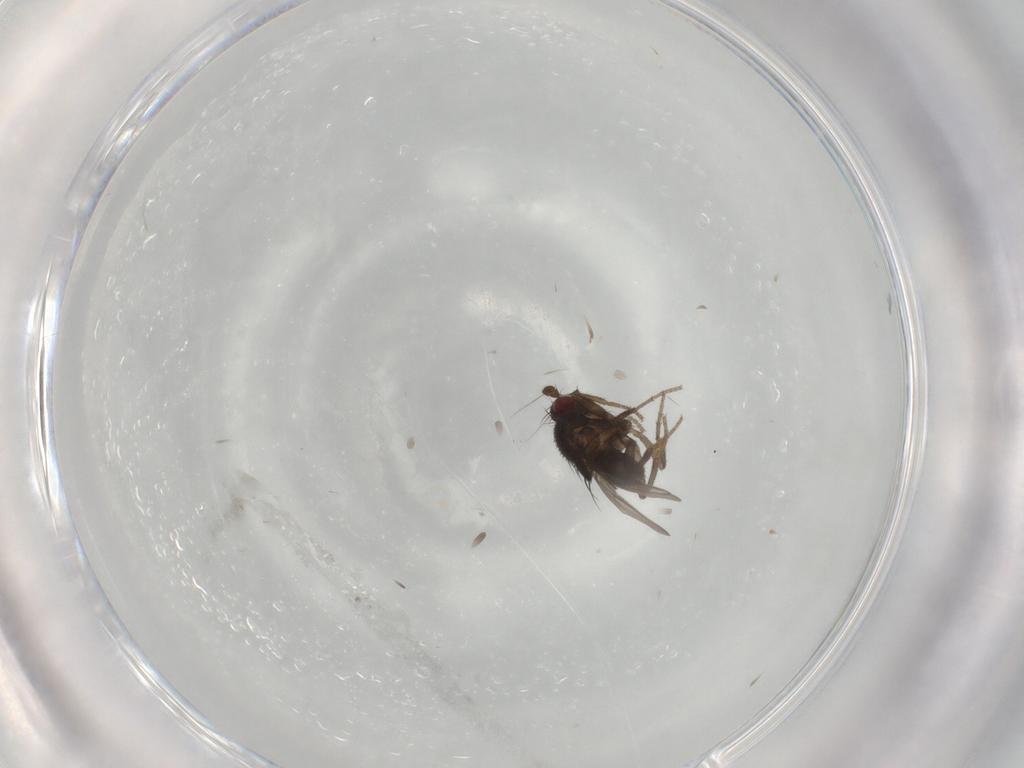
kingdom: Animalia
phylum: Arthropoda
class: Insecta
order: Diptera
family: Sphaeroceridae
